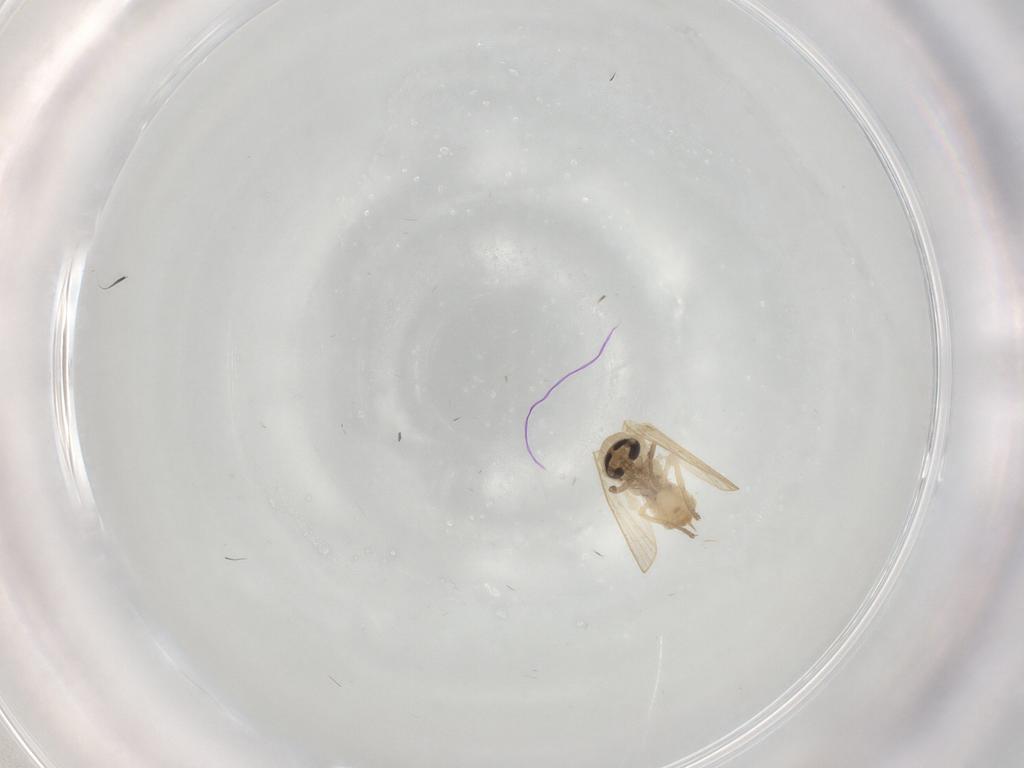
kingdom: Animalia
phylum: Arthropoda
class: Insecta
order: Diptera
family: Psychodidae
